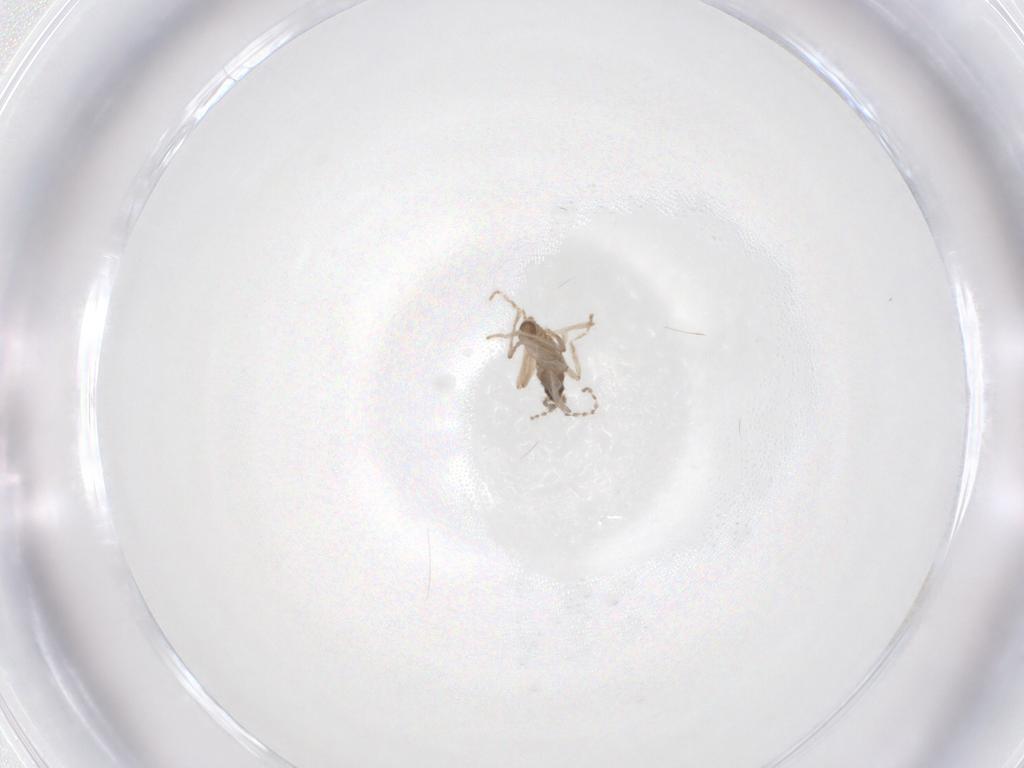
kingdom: Animalia
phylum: Arthropoda
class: Insecta
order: Diptera
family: Cecidomyiidae
